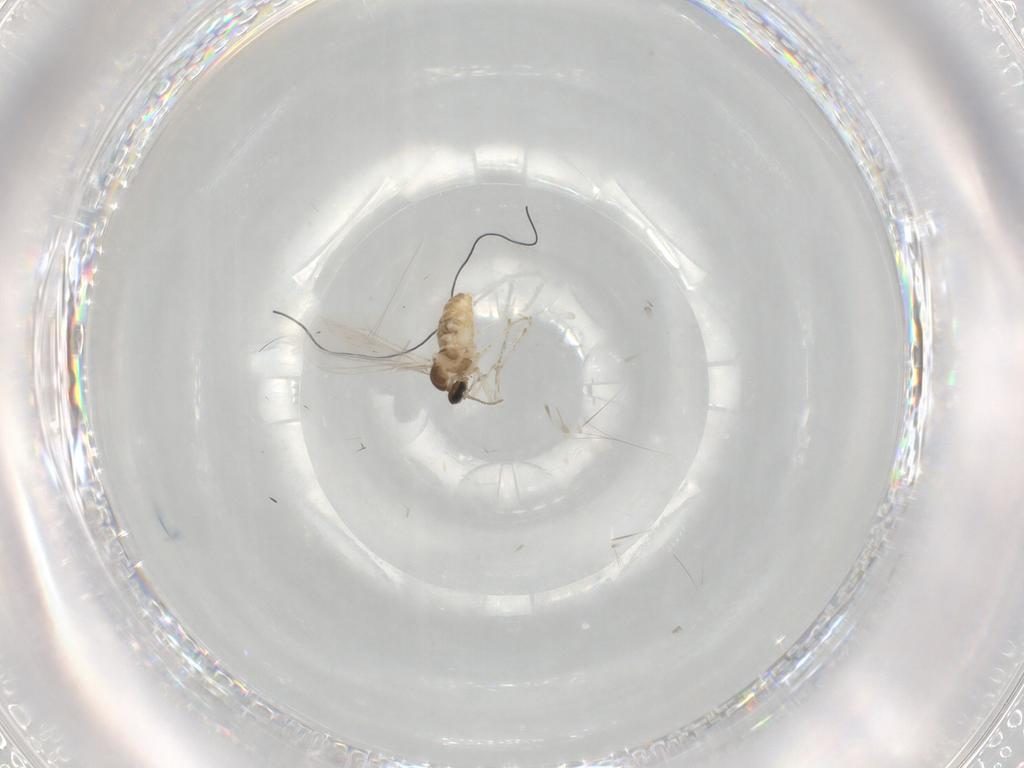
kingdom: Animalia
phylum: Arthropoda
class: Insecta
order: Diptera
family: Cecidomyiidae
